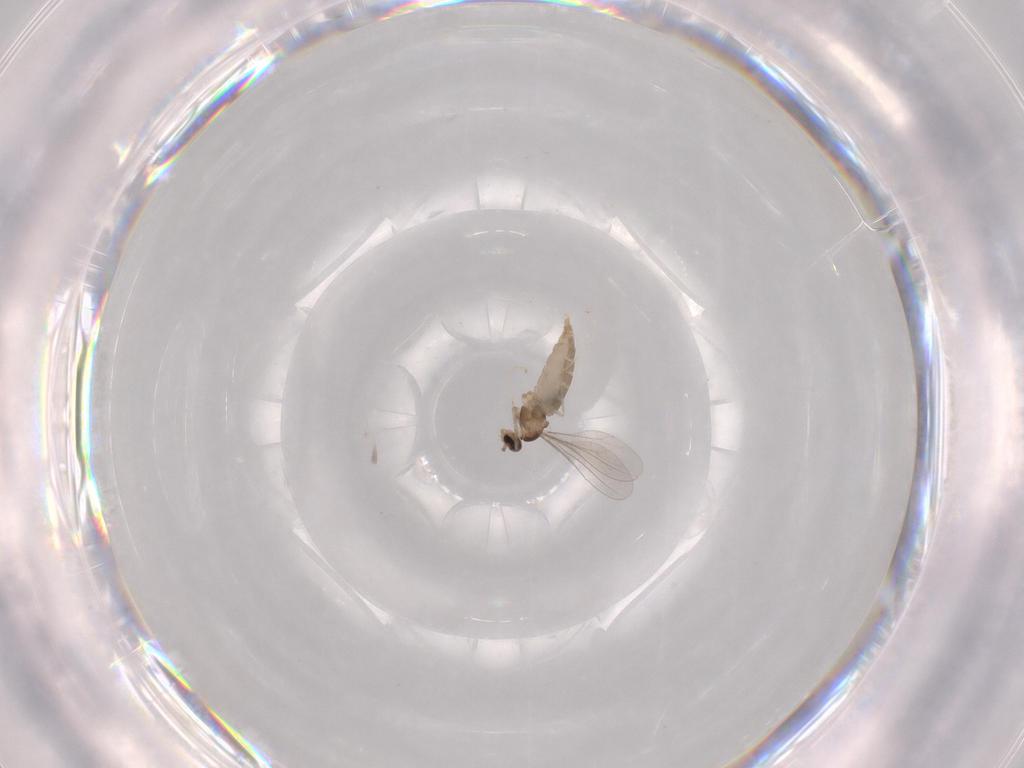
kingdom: Animalia
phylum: Arthropoda
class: Insecta
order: Diptera
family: Cecidomyiidae
